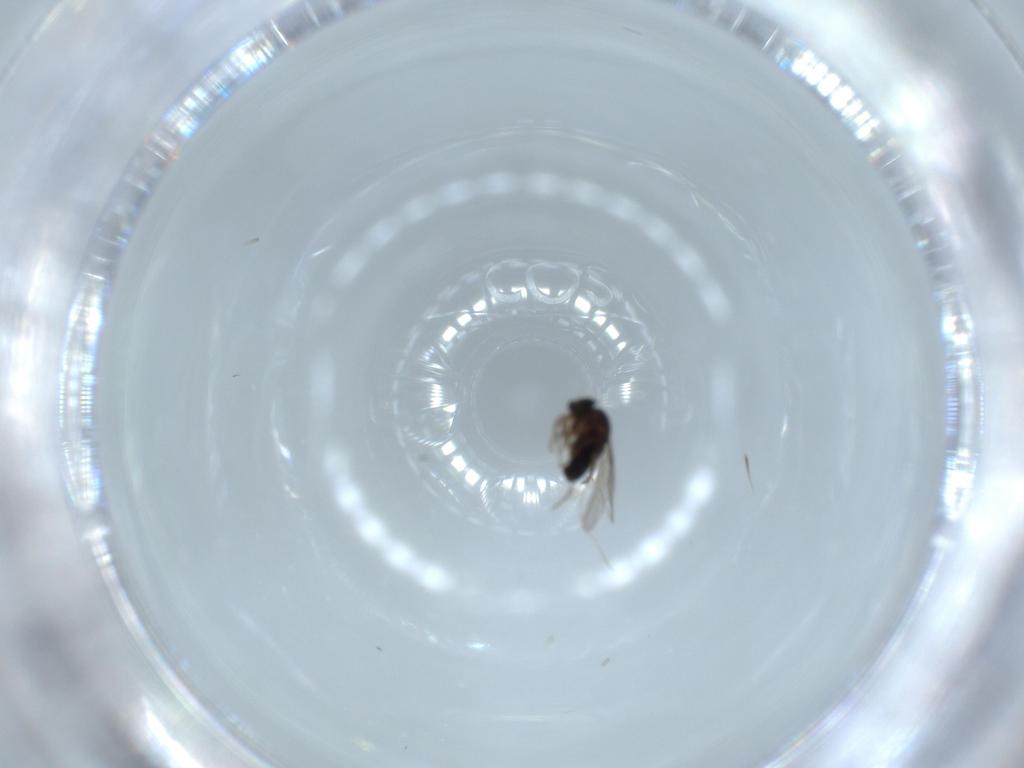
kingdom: Animalia
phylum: Arthropoda
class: Insecta
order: Diptera
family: Phoridae
